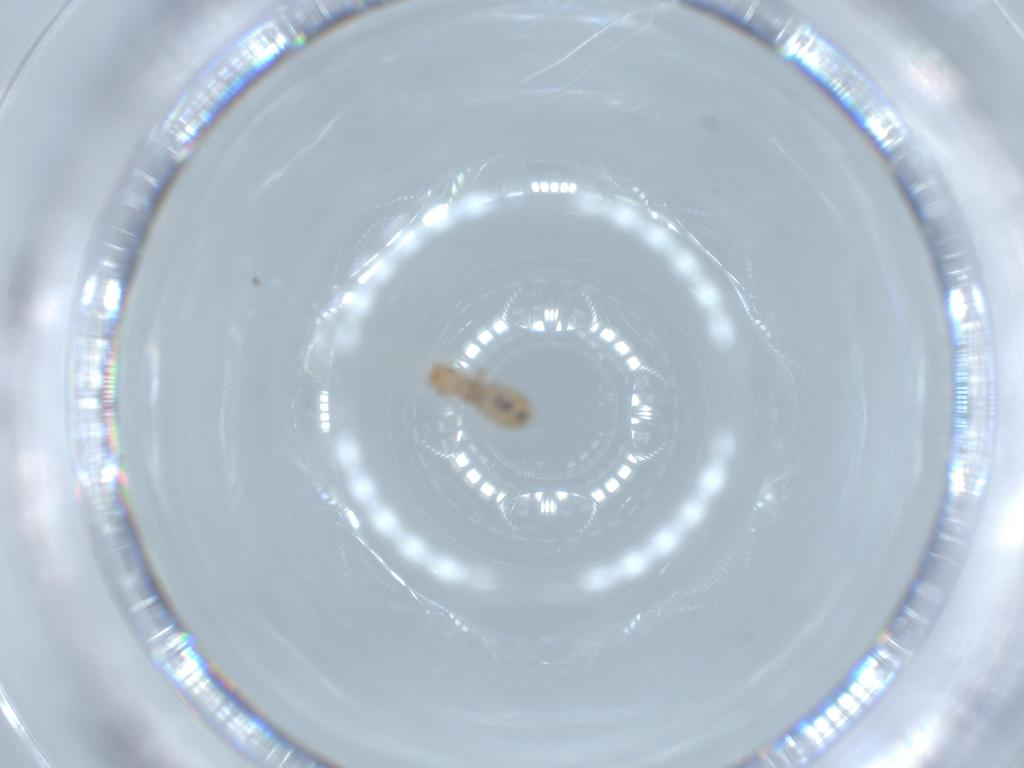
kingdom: Animalia
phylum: Arthropoda
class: Insecta
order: Psocodea
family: Liposcelididae
